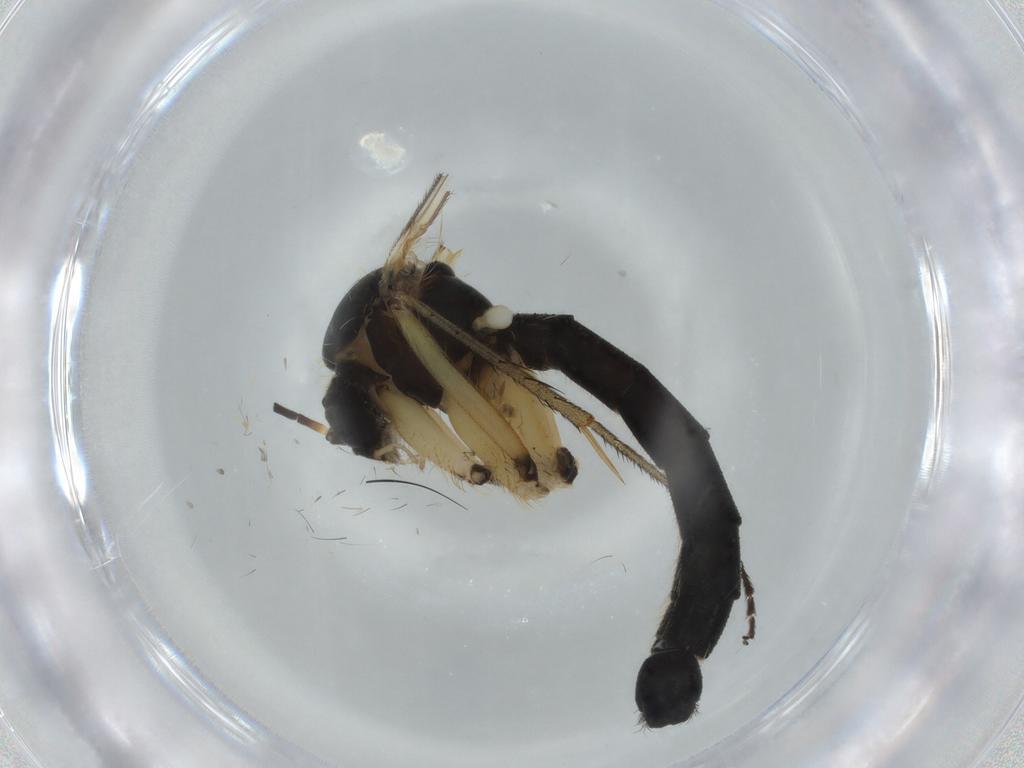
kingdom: Animalia
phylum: Arthropoda
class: Insecta
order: Diptera
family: Empididae
